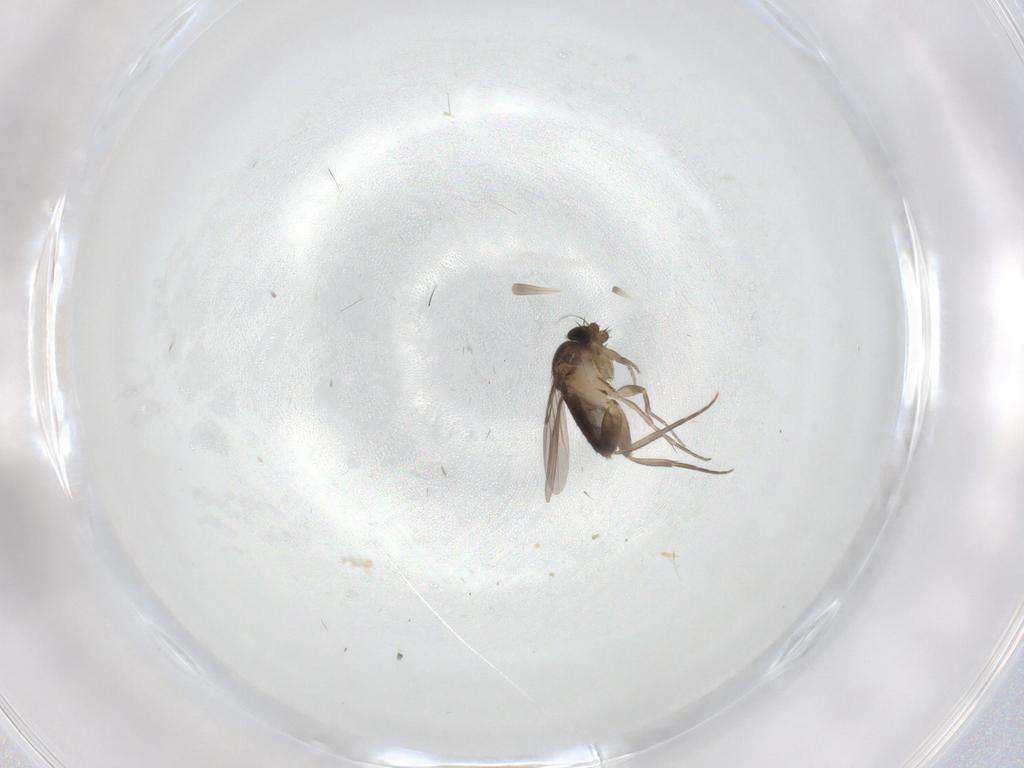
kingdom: Animalia
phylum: Arthropoda
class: Insecta
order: Diptera
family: Phoridae
